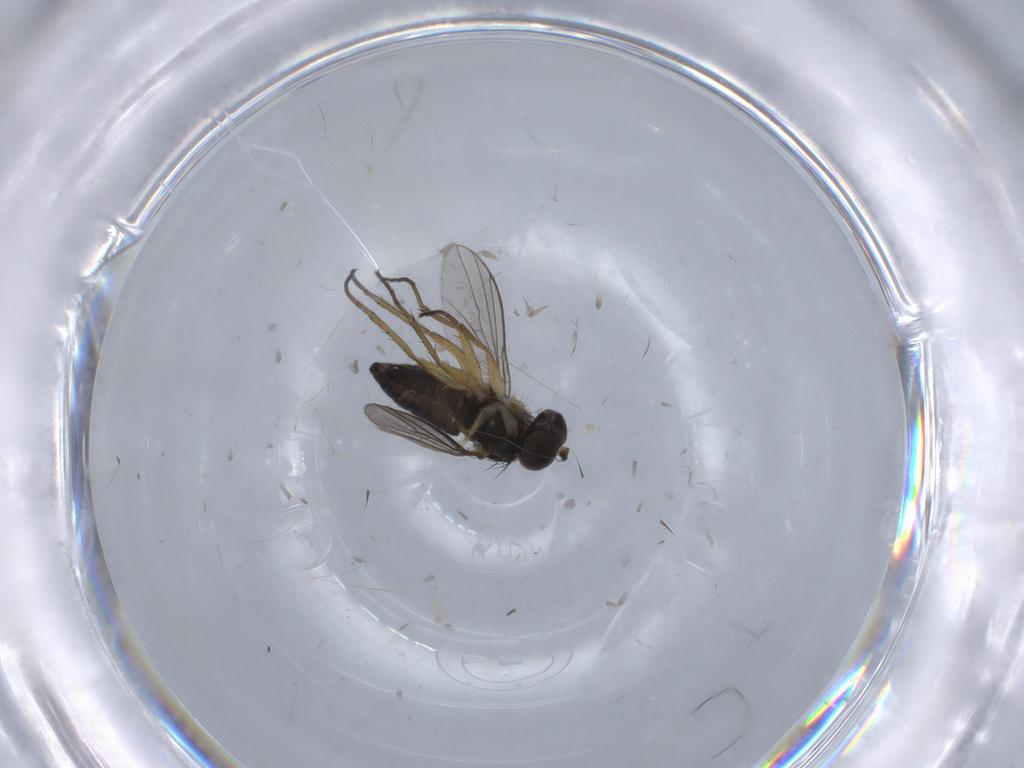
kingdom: Animalia
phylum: Arthropoda
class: Insecta
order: Diptera
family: Ceratopogonidae
